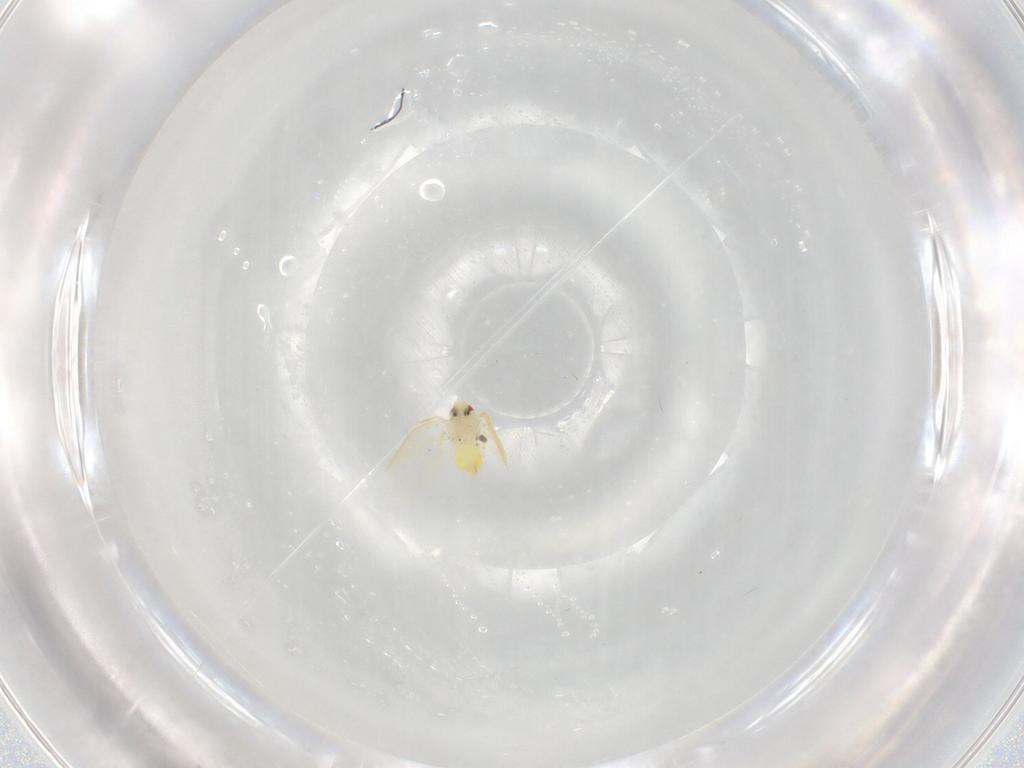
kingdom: Animalia
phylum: Arthropoda
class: Insecta
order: Hemiptera
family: Aleyrodidae
